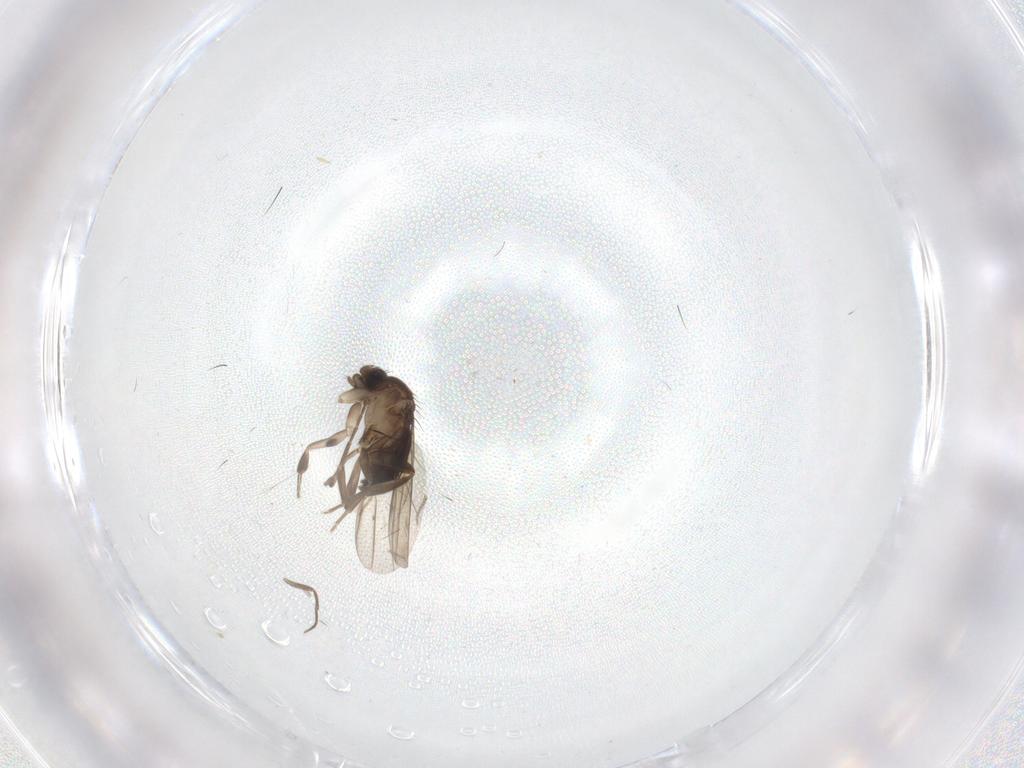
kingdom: Animalia
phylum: Arthropoda
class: Insecta
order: Diptera
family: Phoridae
